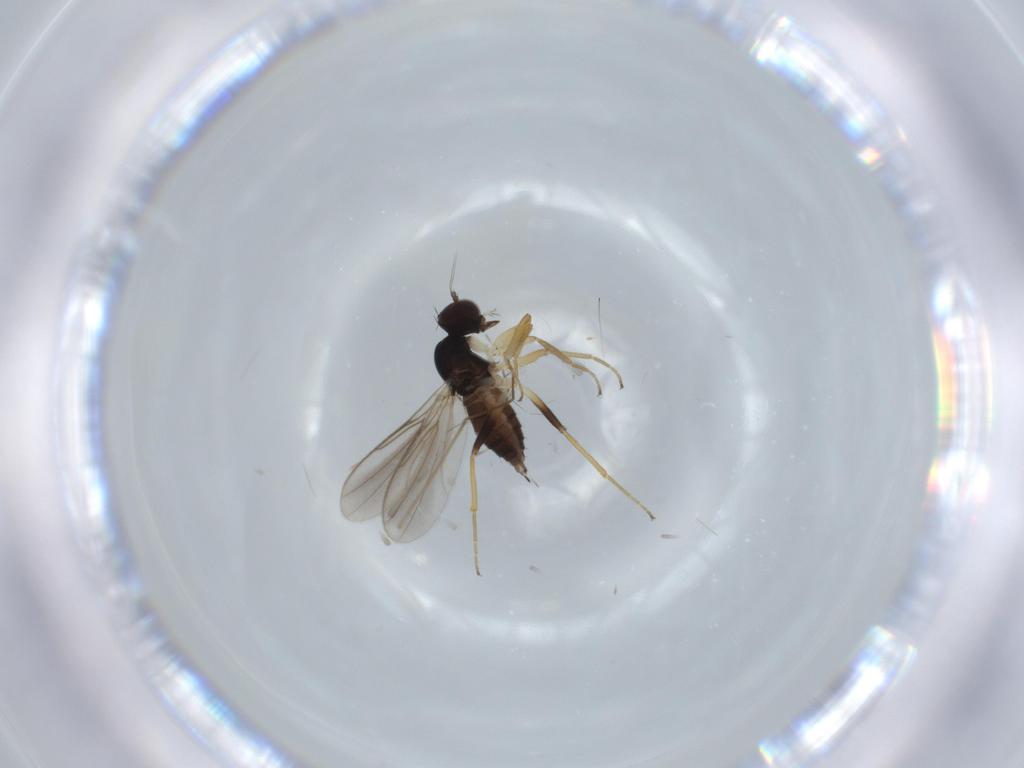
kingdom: Animalia
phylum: Arthropoda
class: Insecta
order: Diptera
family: Hybotidae
